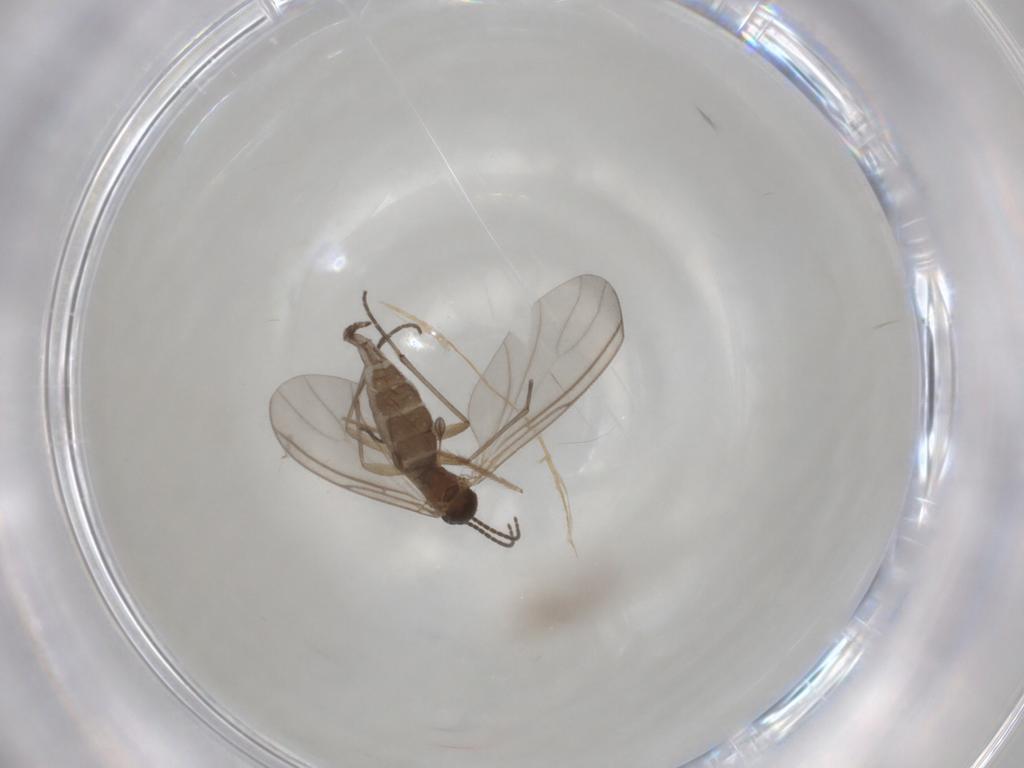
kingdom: Animalia
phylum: Arthropoda
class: Insecta
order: Diptera
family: Sciaridae
